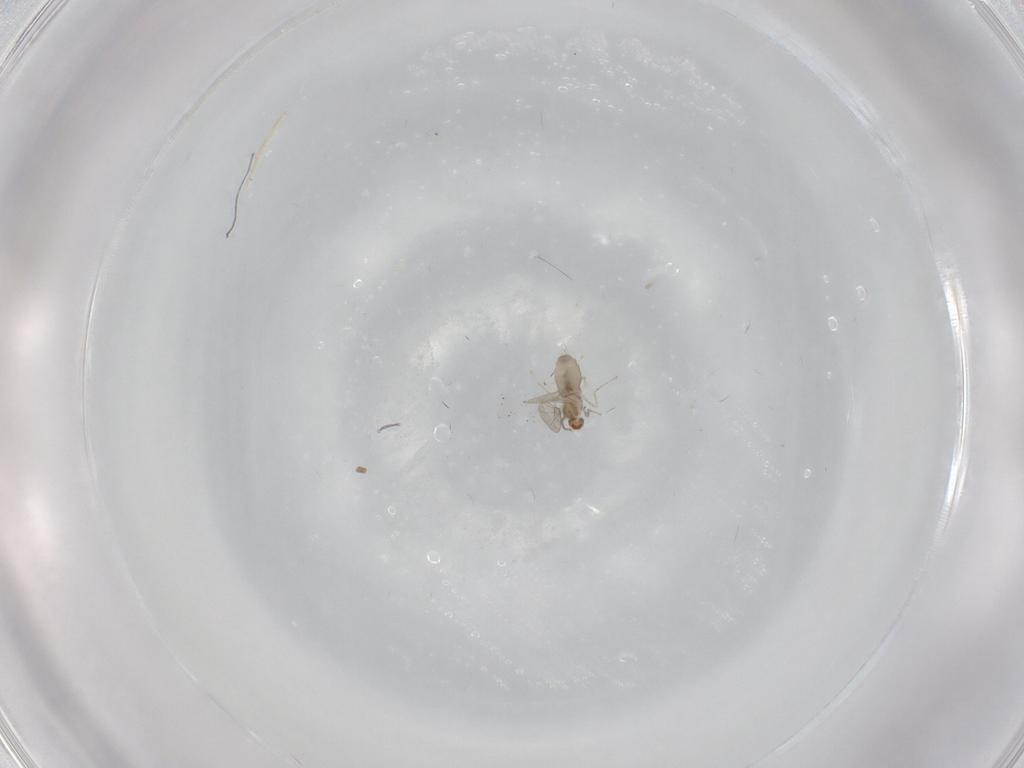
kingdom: Animalia
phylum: Arthropoda
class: Insecta
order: Diptera
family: Cecidomyiidae
